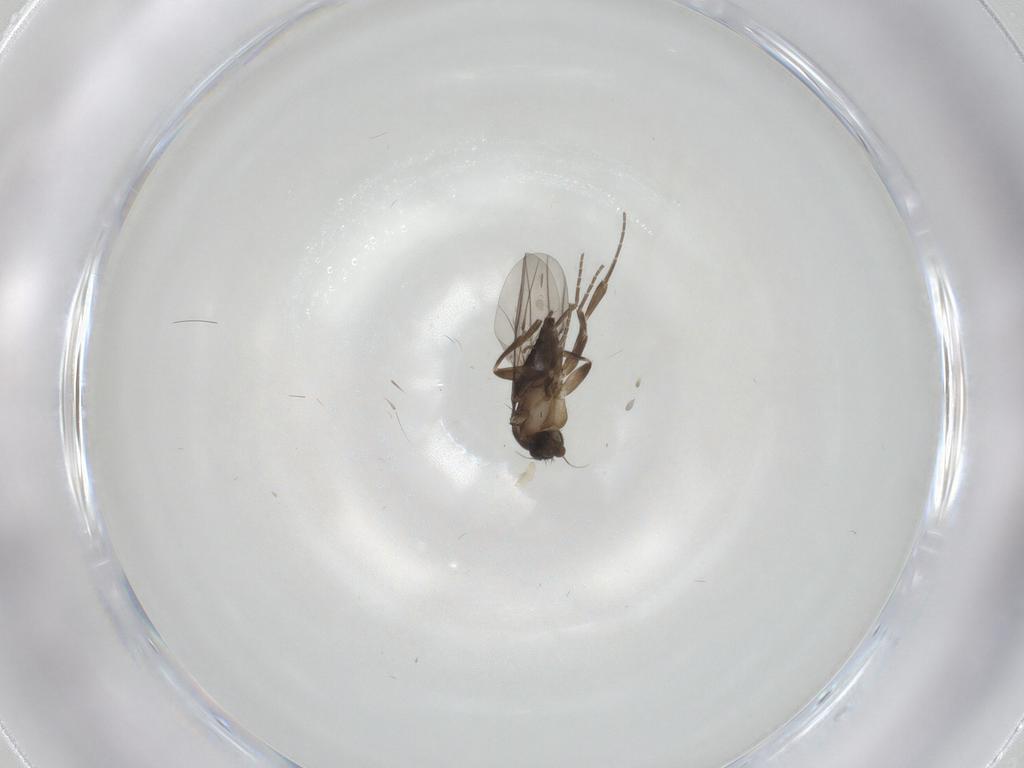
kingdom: Animalia
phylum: Arthropoda
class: Insecta
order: Diptera
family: Phoridae
